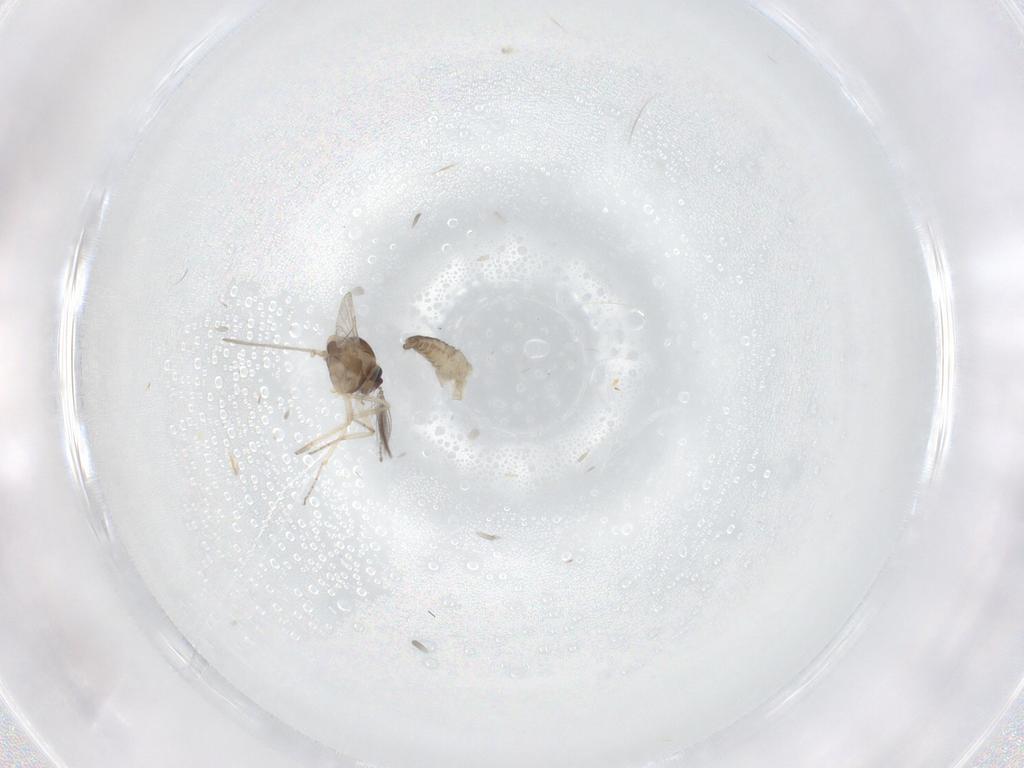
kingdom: Animalia
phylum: Arthropoda
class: Insecta
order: Diptera
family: Ceratopogonidae
